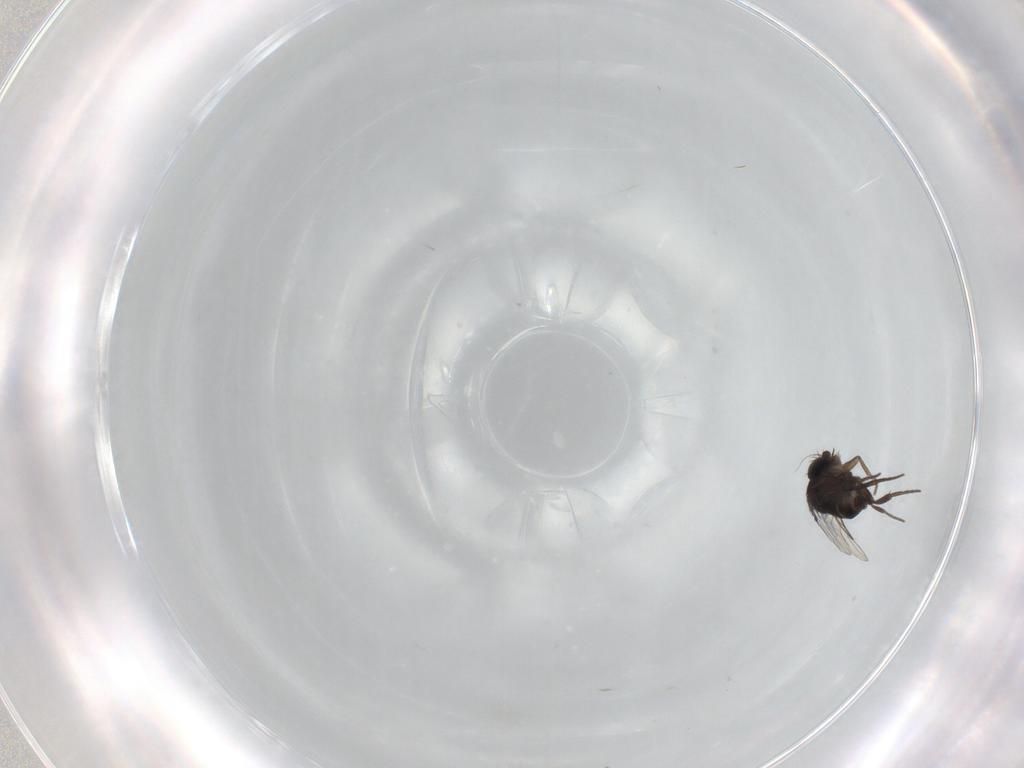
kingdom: Animalia
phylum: Arthropoda
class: Insecta
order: Diptera
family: Phoridae
